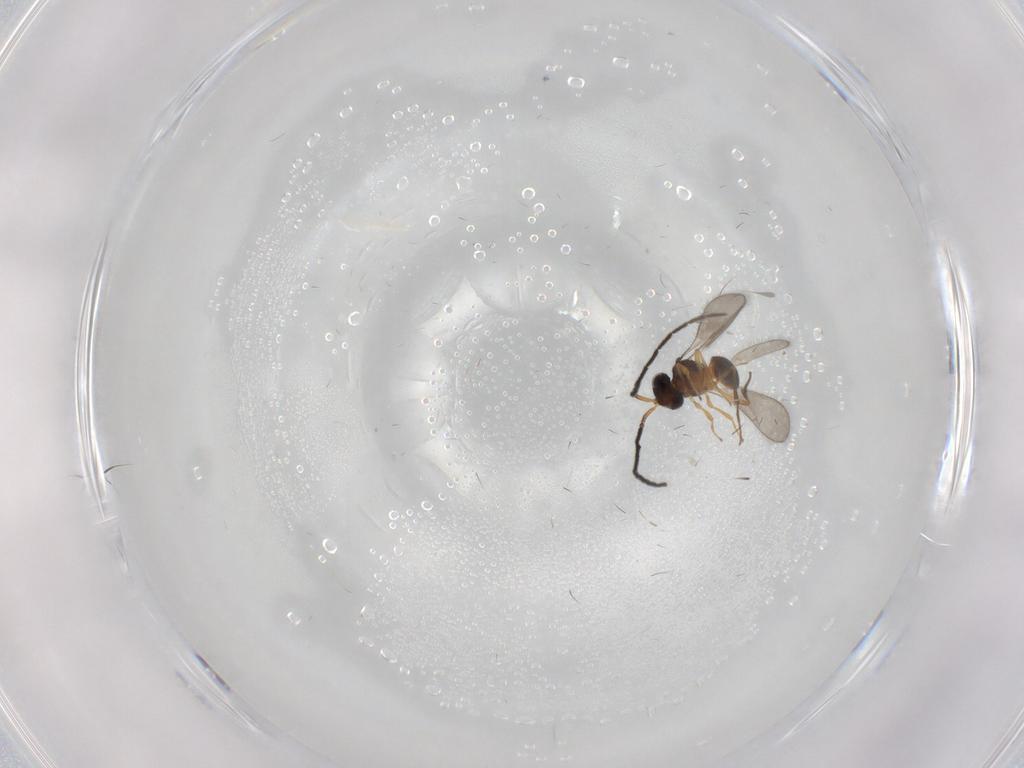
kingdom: Animalia
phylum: Arthropoda
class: Insecta
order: Hymenoptera
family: Scelionidae
